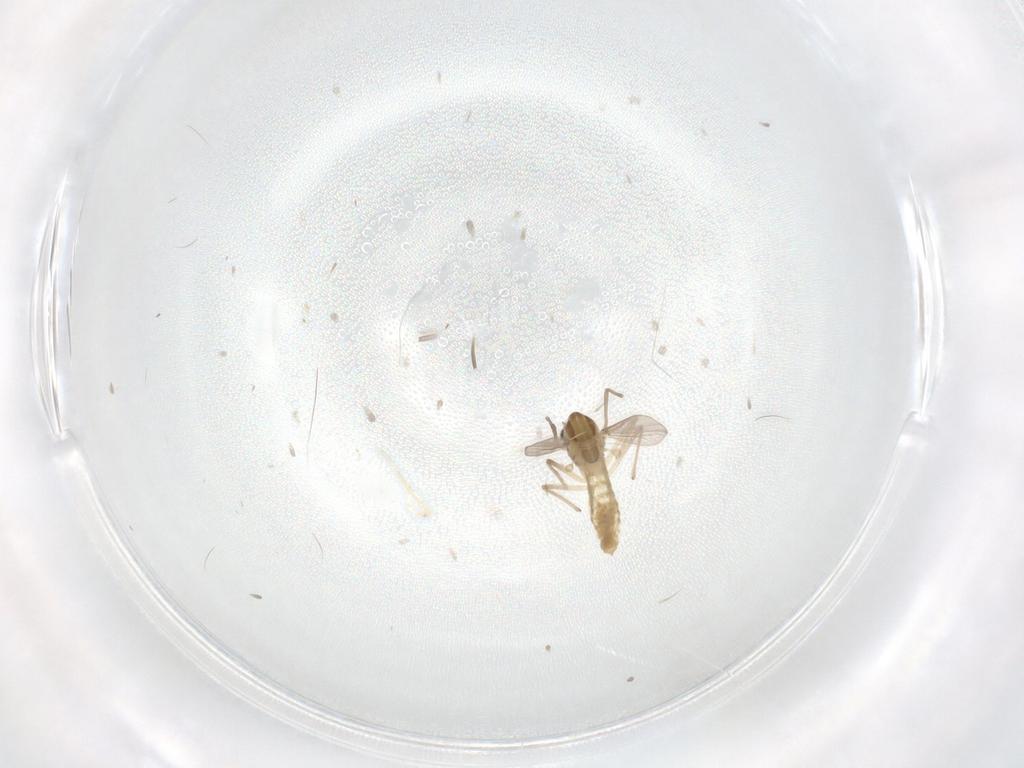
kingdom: Animalia
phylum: Arthropoda
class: Insecta
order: Diptera
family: Chironomidae
